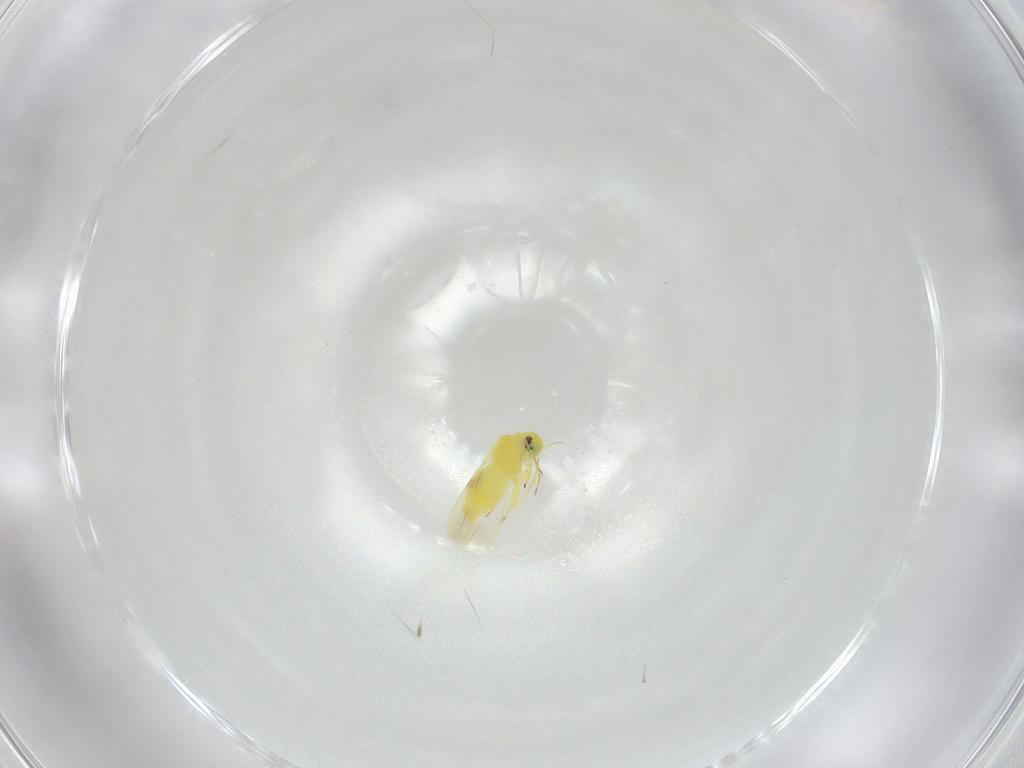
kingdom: Animalia
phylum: Arthropoda
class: Insecta
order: Hemiptera
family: Aleyrodidae
